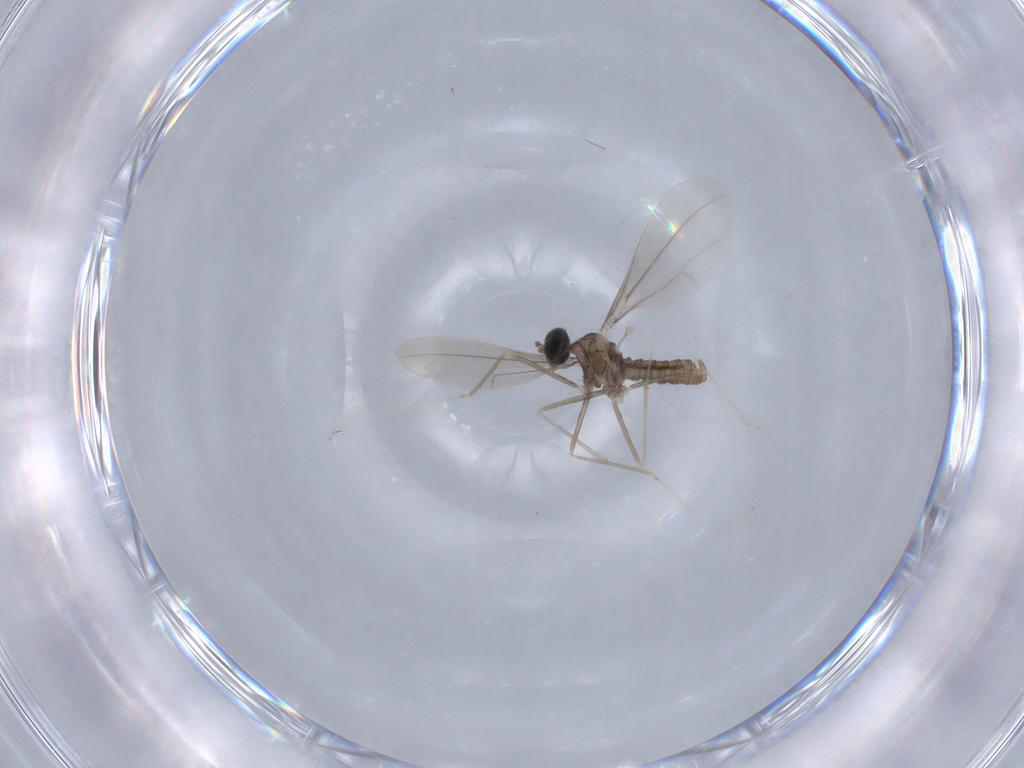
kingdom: Animalia
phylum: Arthropoda
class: Insecta
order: Diptera
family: Cecidomyiidae
